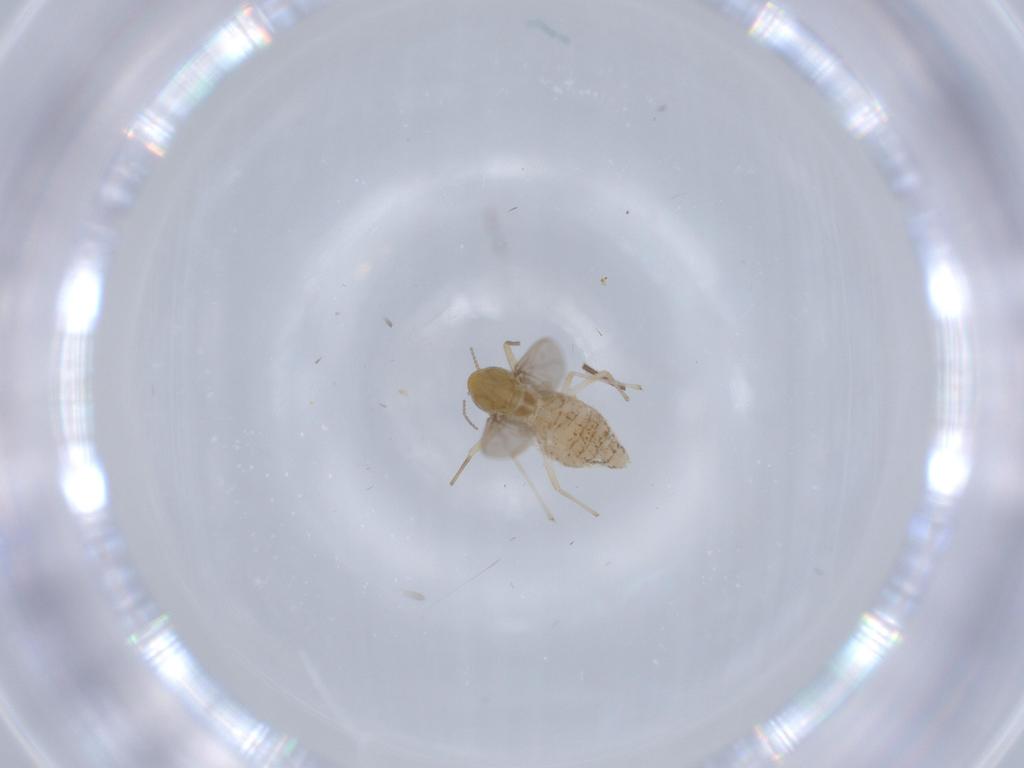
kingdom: Animalia
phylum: Arthropoda
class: Insecta
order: Diptera
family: Chironomidae
